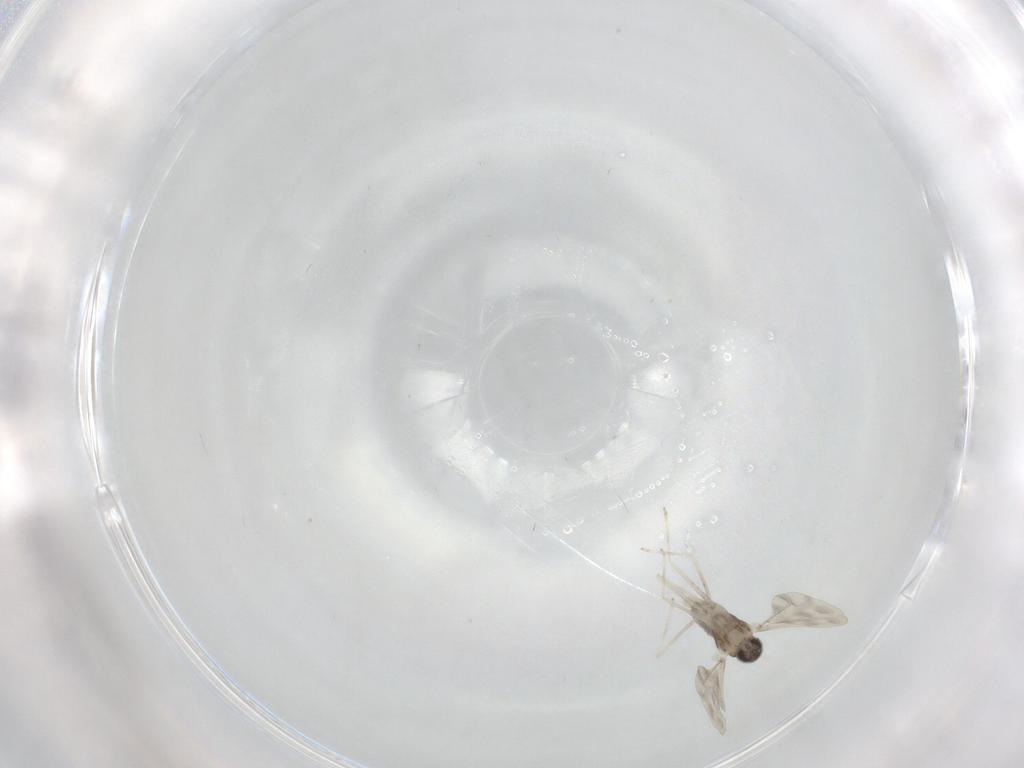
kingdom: Animalia
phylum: Arthropoda
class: Insecta
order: Diptera
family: Cecidomyiidae
